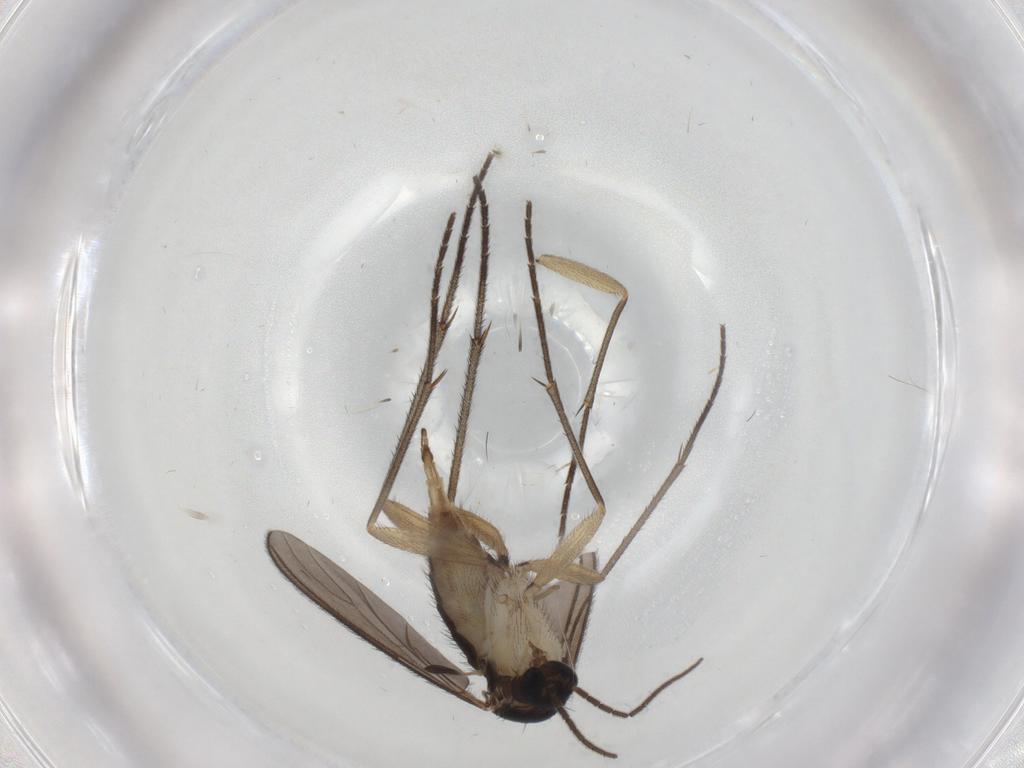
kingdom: Animalia
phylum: Arthropoda
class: Insecta
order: Diptera
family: Sciaridae
